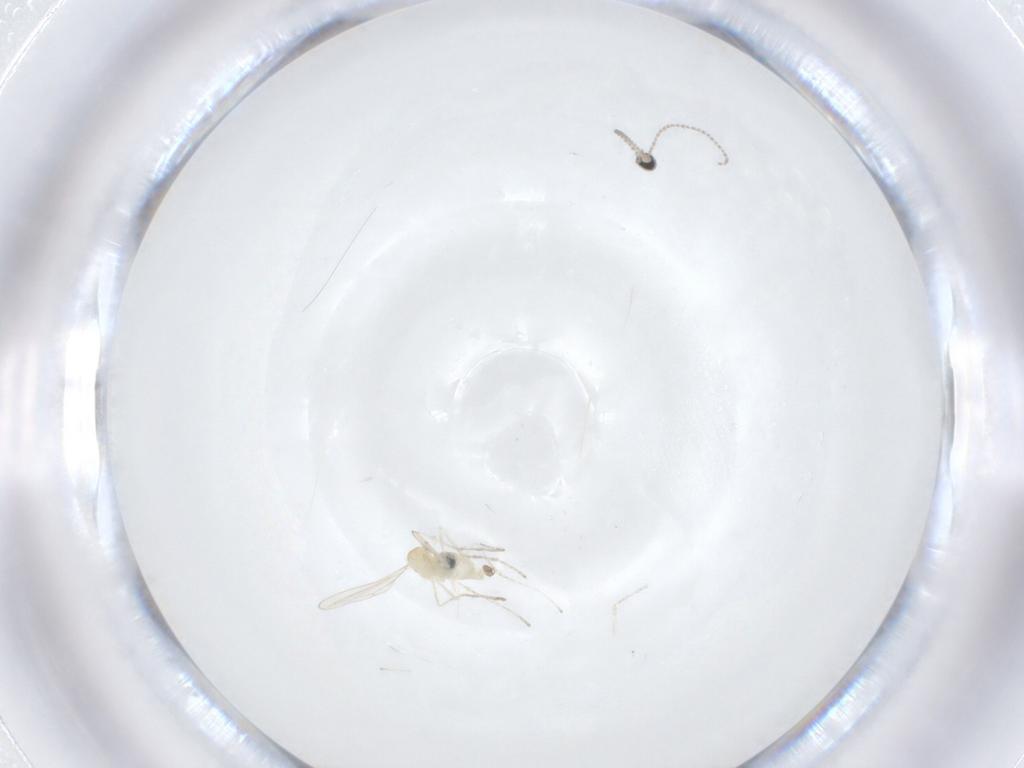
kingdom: Animalia
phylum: Arthropoda
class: Insecta
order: Diptera
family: Cecidomyiidae
